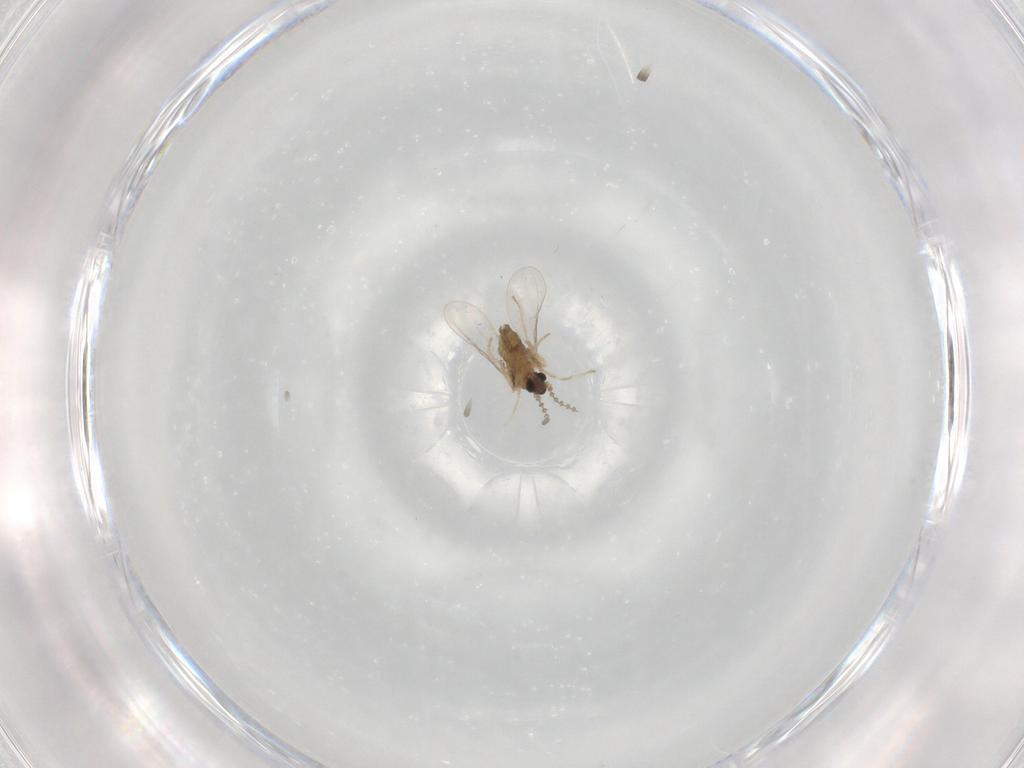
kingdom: Animalia
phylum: Arthropoda
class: Insecta
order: Diptera
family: Cecidomyiidae
